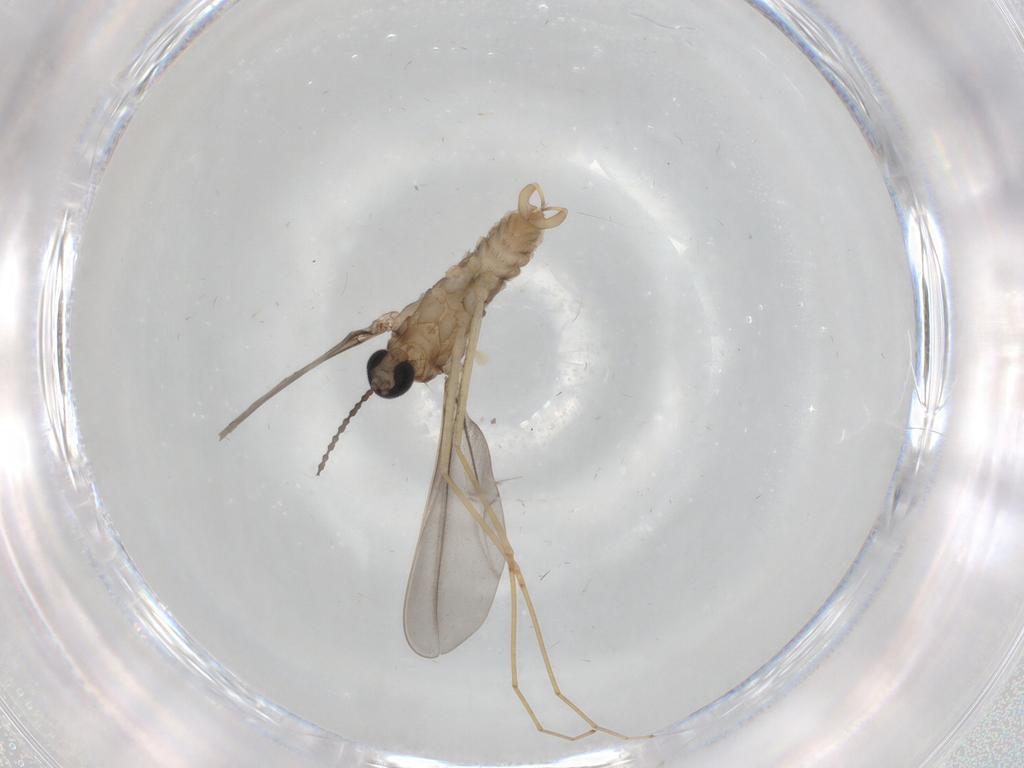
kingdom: Animalia
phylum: Arthropoda
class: Insecta
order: Diptera
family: Cecidomyiidae
